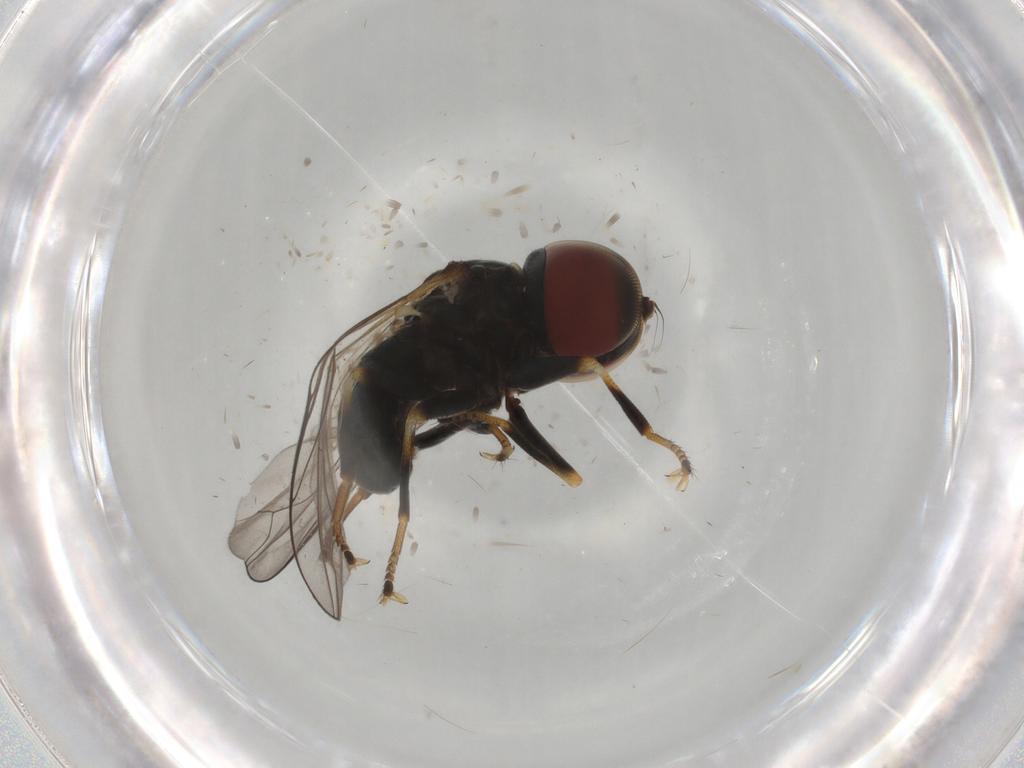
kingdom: Animalia
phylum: Arthropoda
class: Insecta
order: Diptera
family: Pipunculidae
